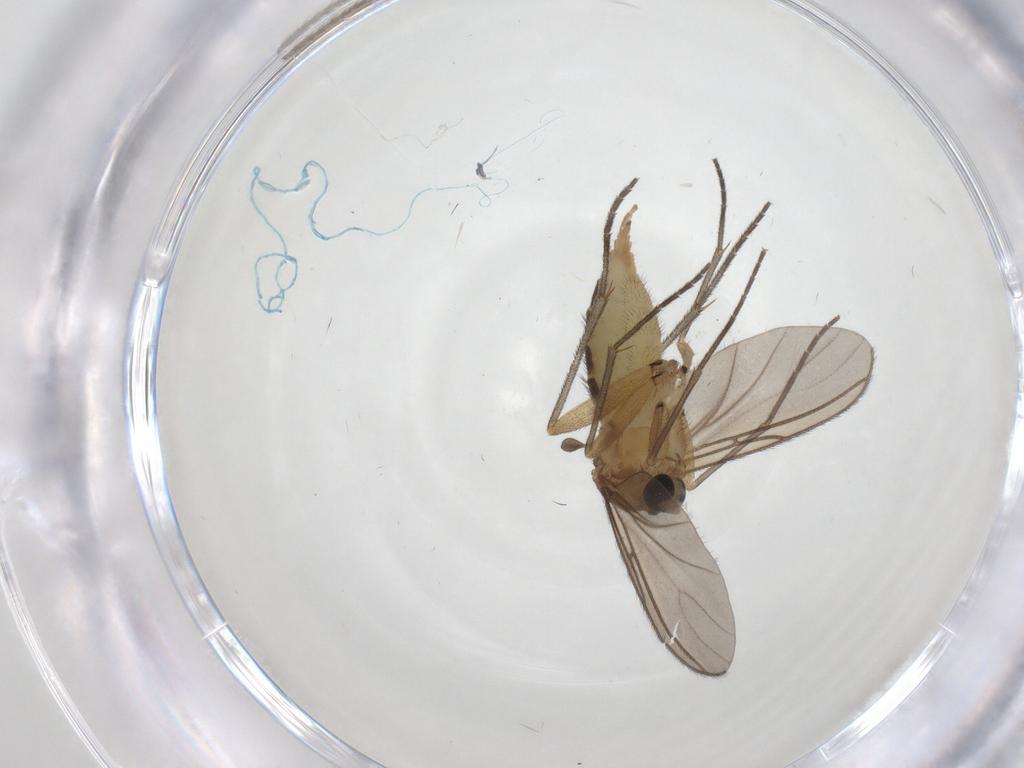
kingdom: Animalia
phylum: Arthropoda
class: Insecta
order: Diptera
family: Sciaridae
